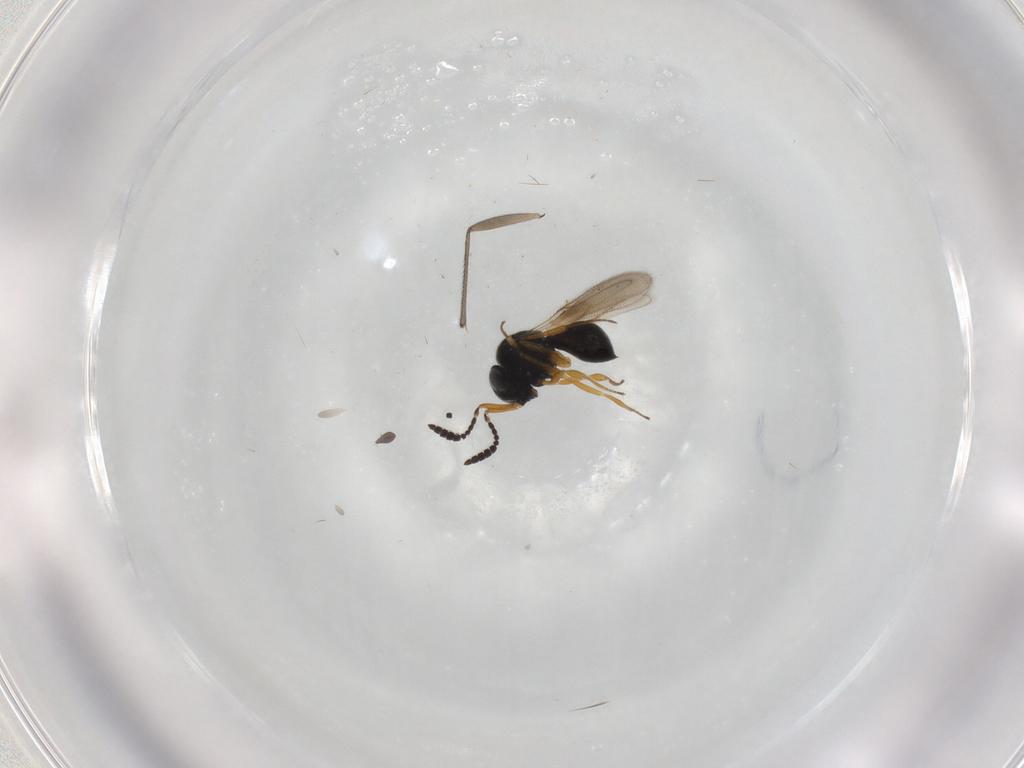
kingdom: Animalia
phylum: Arthropoda
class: Insecta
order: Hymenoptera
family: Scelionidae
